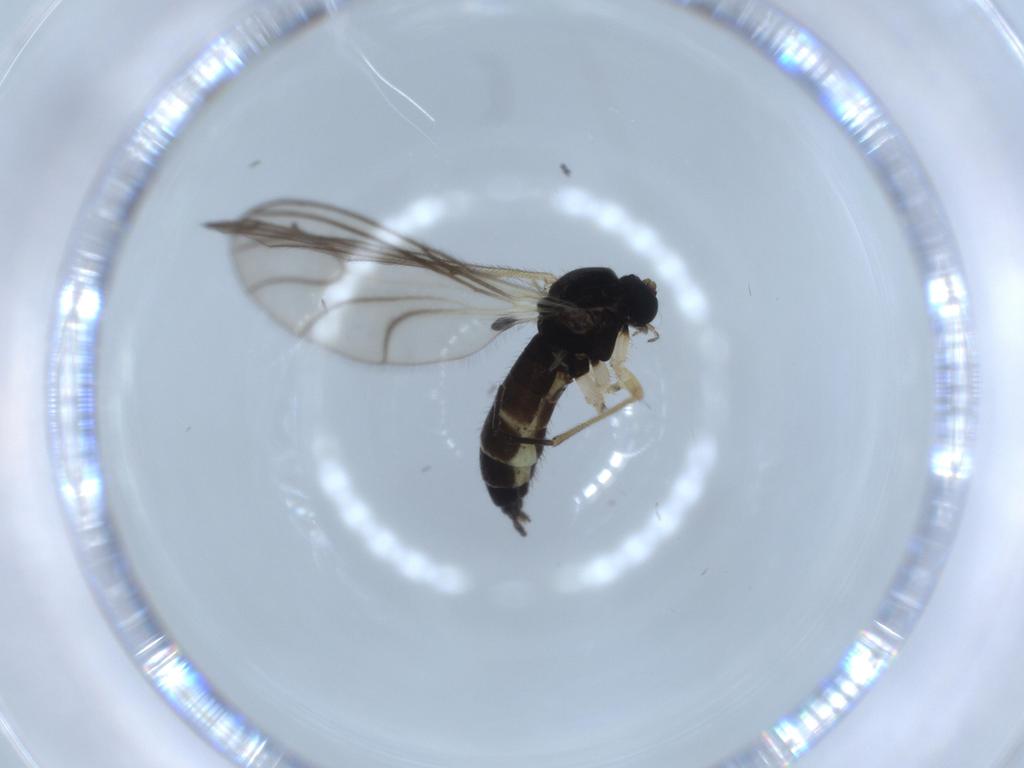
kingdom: Animalia
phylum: Arthropoda
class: Insecta
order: Diptera
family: Sciaridae
